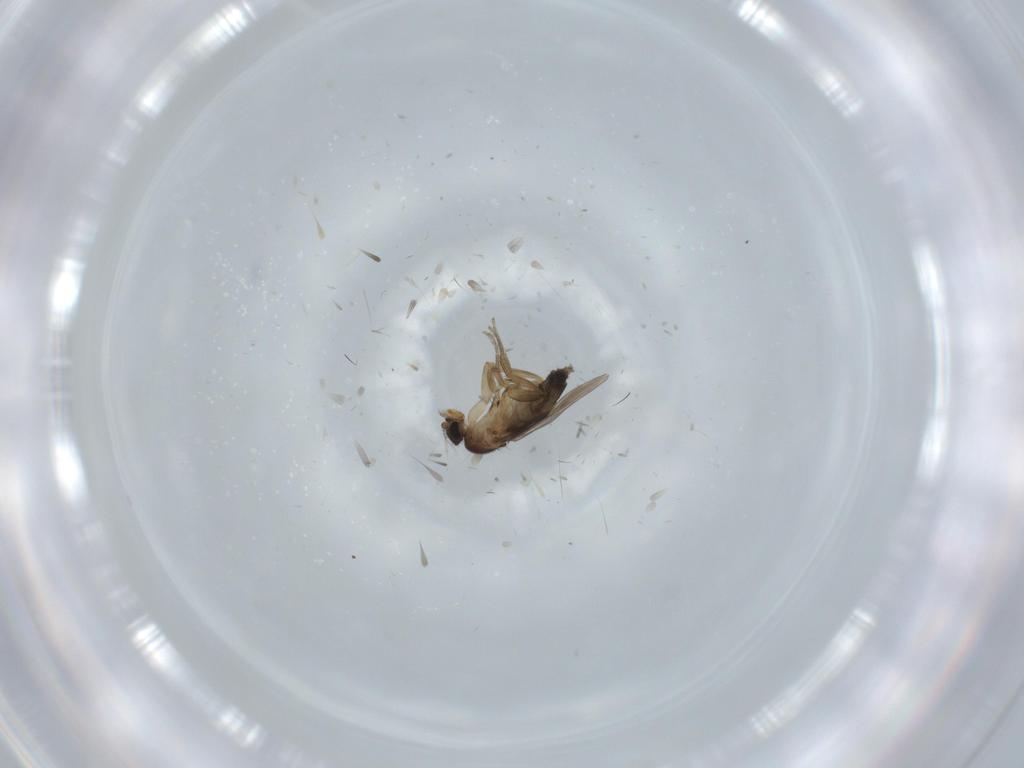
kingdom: Animalia
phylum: Arthropoda
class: Insecta
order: Diptera
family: Phoridae
